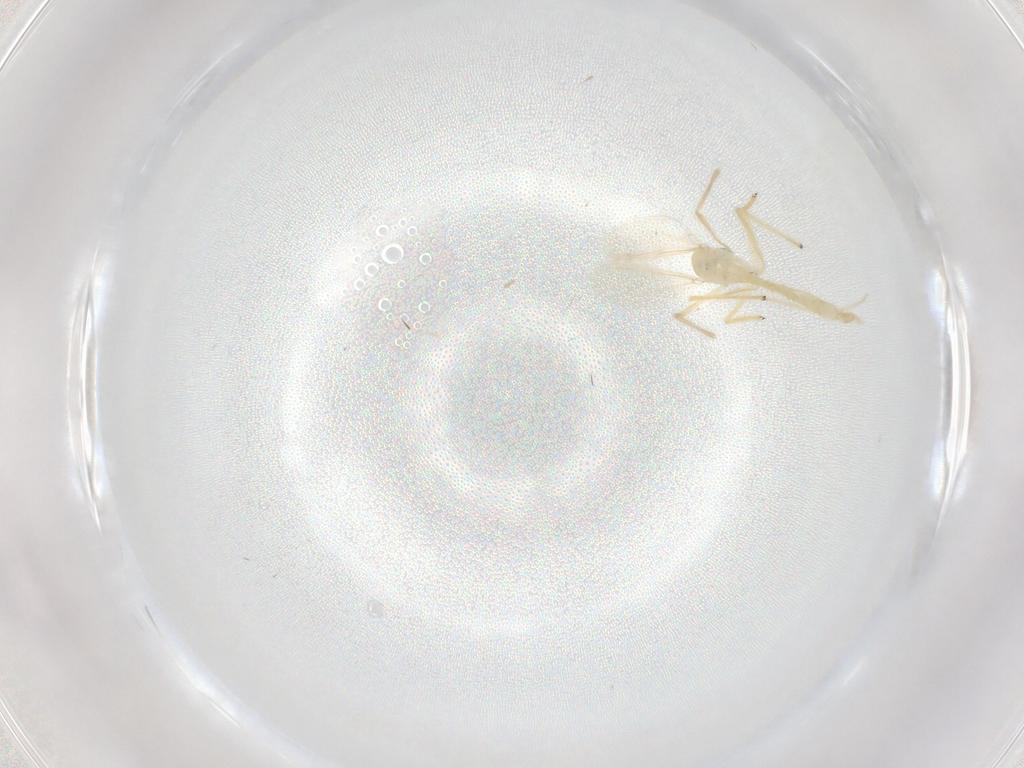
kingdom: Animalia
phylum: Arthropoda
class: Insecta
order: Diptera
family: Chironomidae
